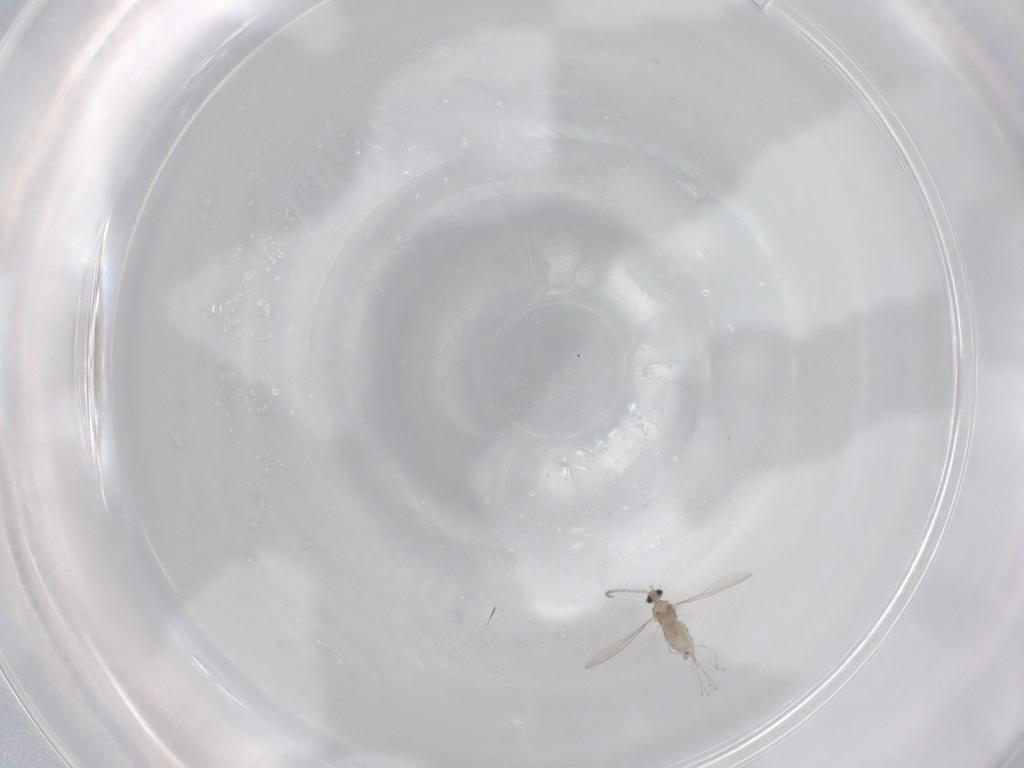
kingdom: Animalia
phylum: Arthropoda
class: Insecta
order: Diptera
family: Cecidomyiidae
